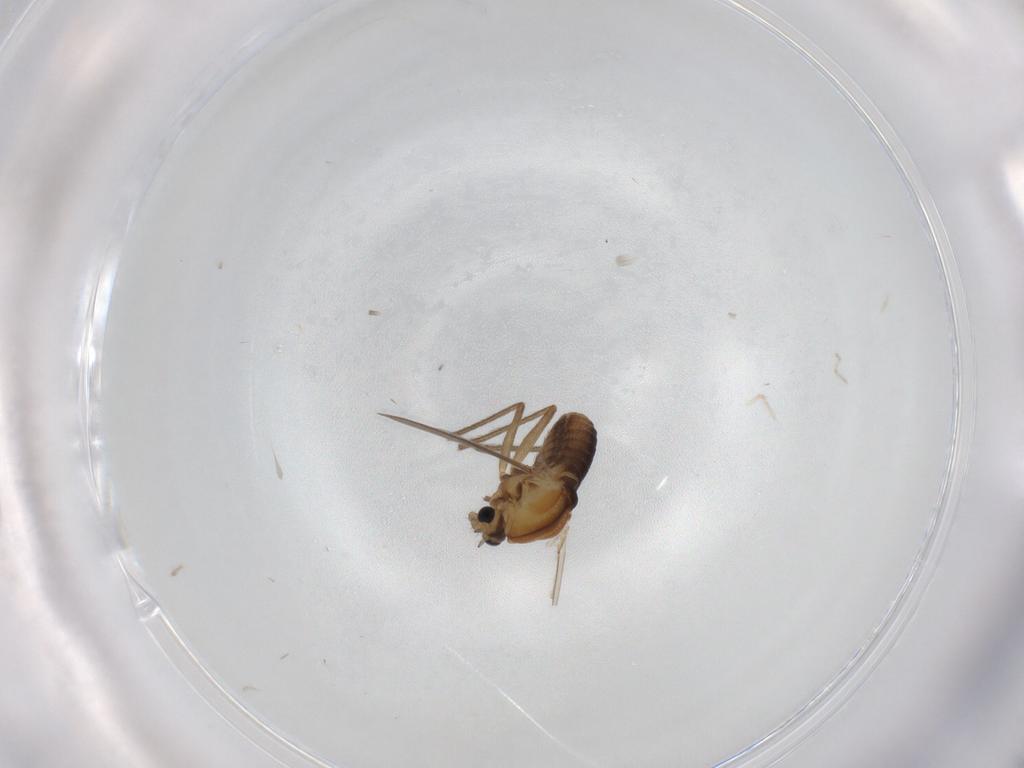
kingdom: Animalia
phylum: Arthropoda
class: Insecta
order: Diptera
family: Chironomidae
